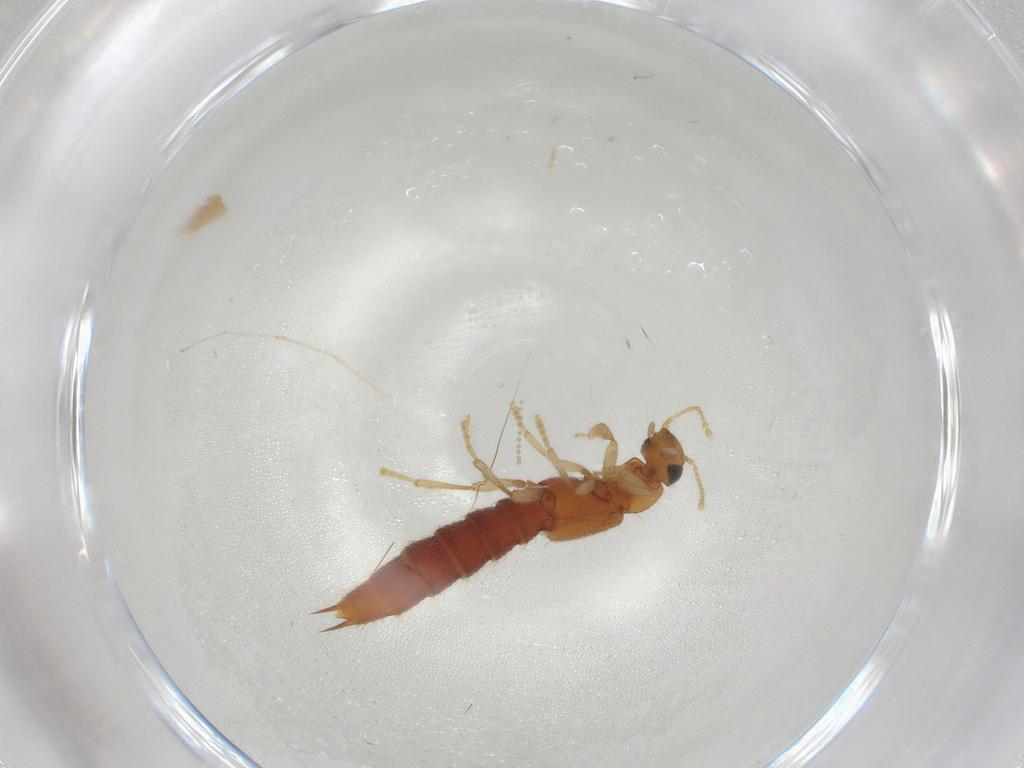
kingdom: Animalia
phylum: Arthropoda
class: Insecta
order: Coleoptera
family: Staphylinidae
